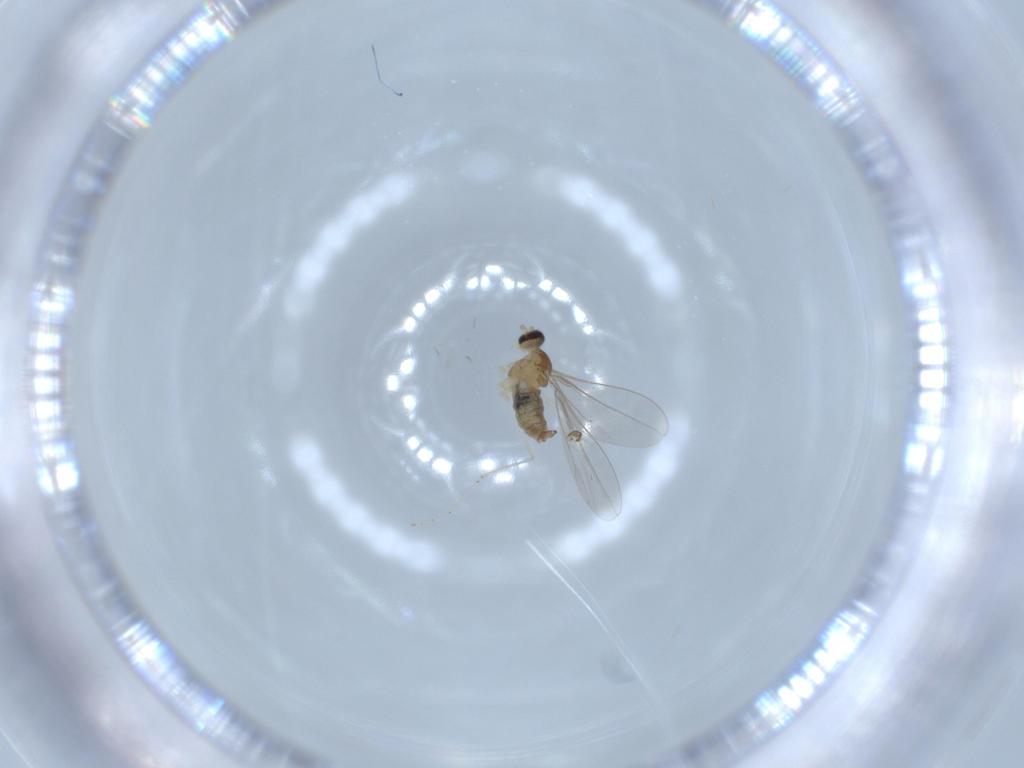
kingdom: Animalia
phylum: Arthropoda
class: Insecta
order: Diptera
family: Cecidomyiidae
